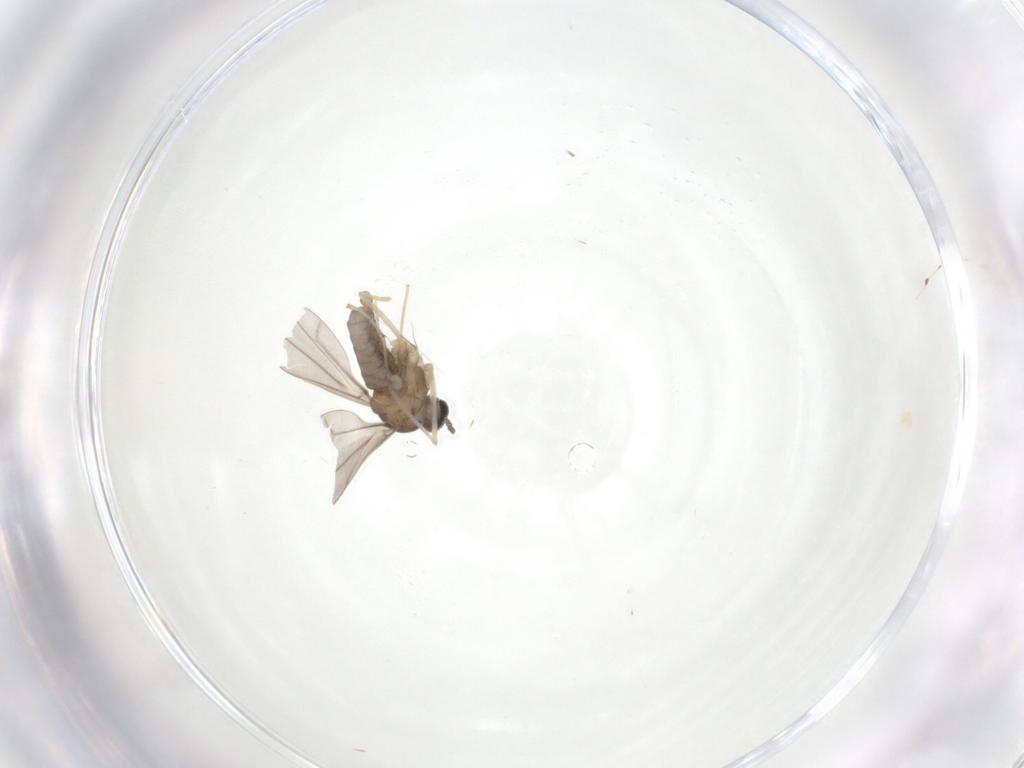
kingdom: Animalia
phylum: Arthropoda
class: Insecta
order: Diptera
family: Cecidomyiidae
